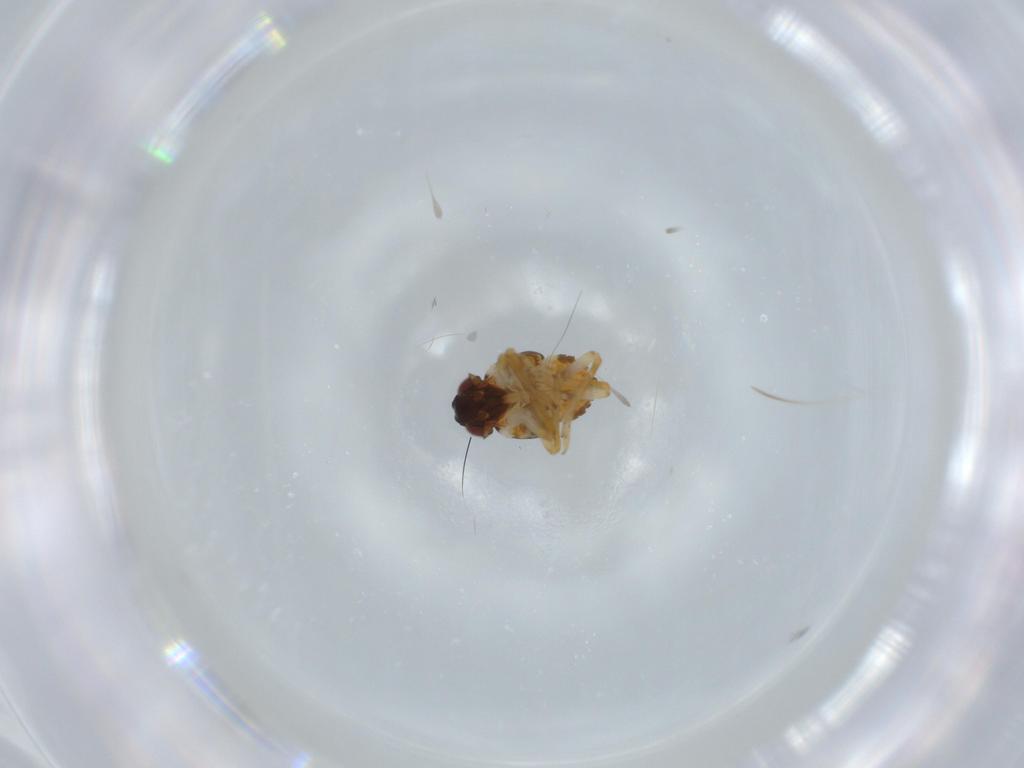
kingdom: Animalia
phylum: Arthropoda
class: Insecta
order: Hemiptera
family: Issidae
